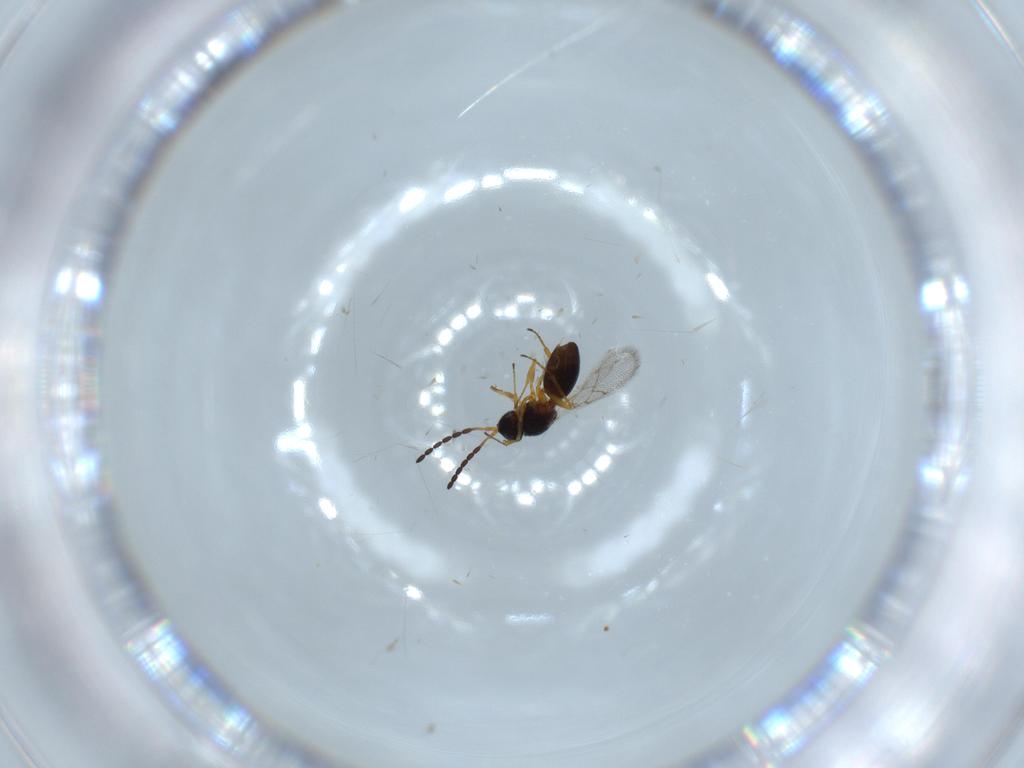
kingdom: Animalia
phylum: Arthropoda
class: Insecta
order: Hymenoptera
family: Figitidae
